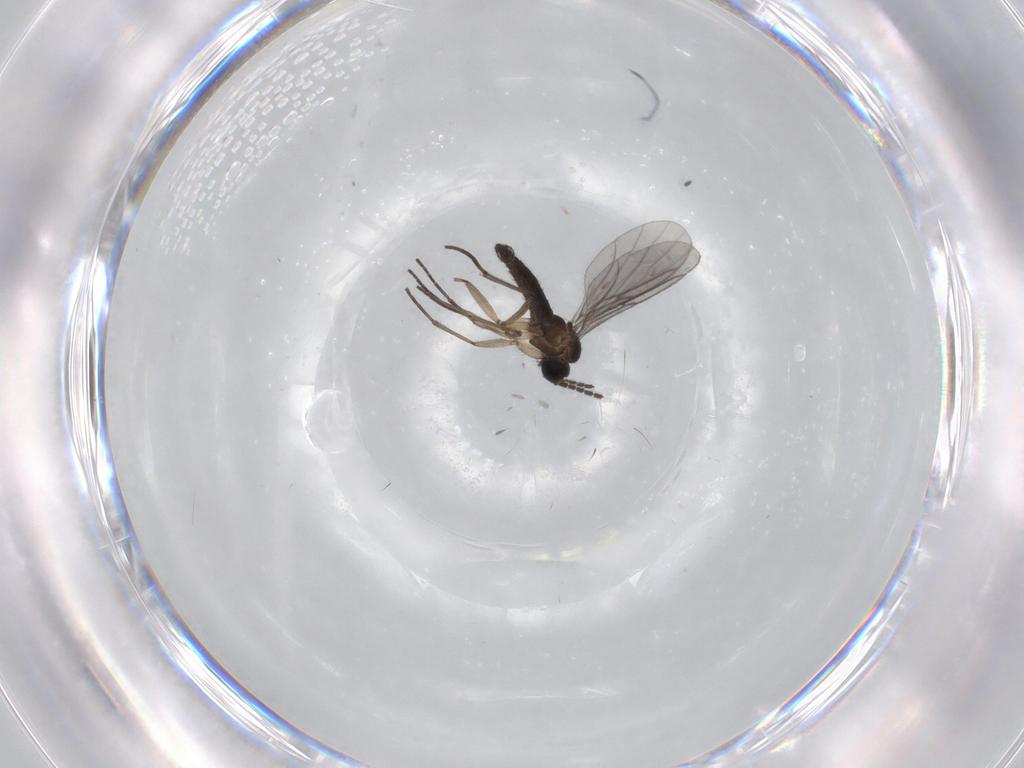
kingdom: Animalia
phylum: Arthropoda
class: Insecta
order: Diptera
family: Sciaridae
